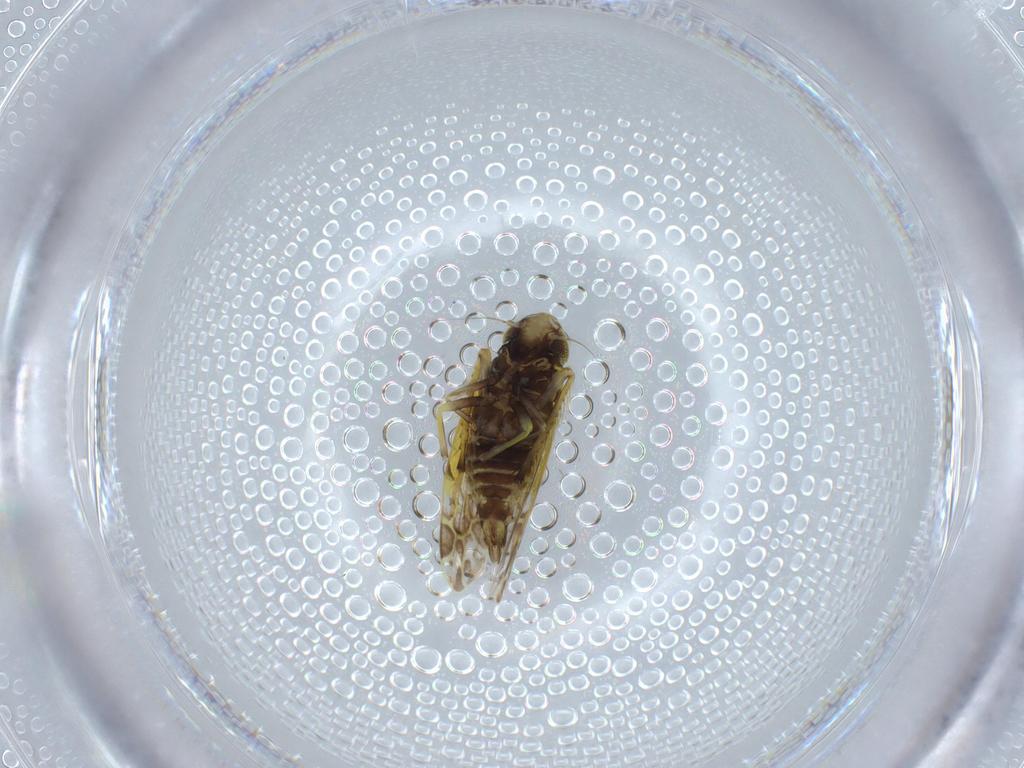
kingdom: Animalia
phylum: Arthropoda
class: Insecta
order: Hemiptera
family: Cicadellidae
